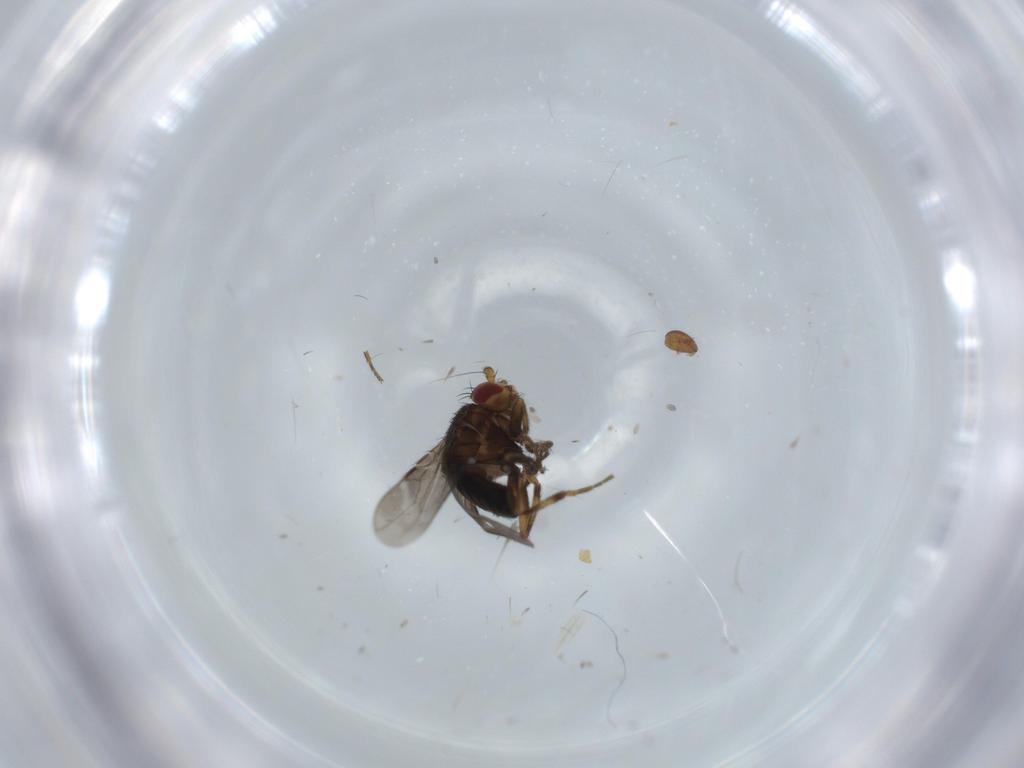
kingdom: Animalia
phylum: Arthropoda
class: Insecta
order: Diptera
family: Sphaeroceridae
